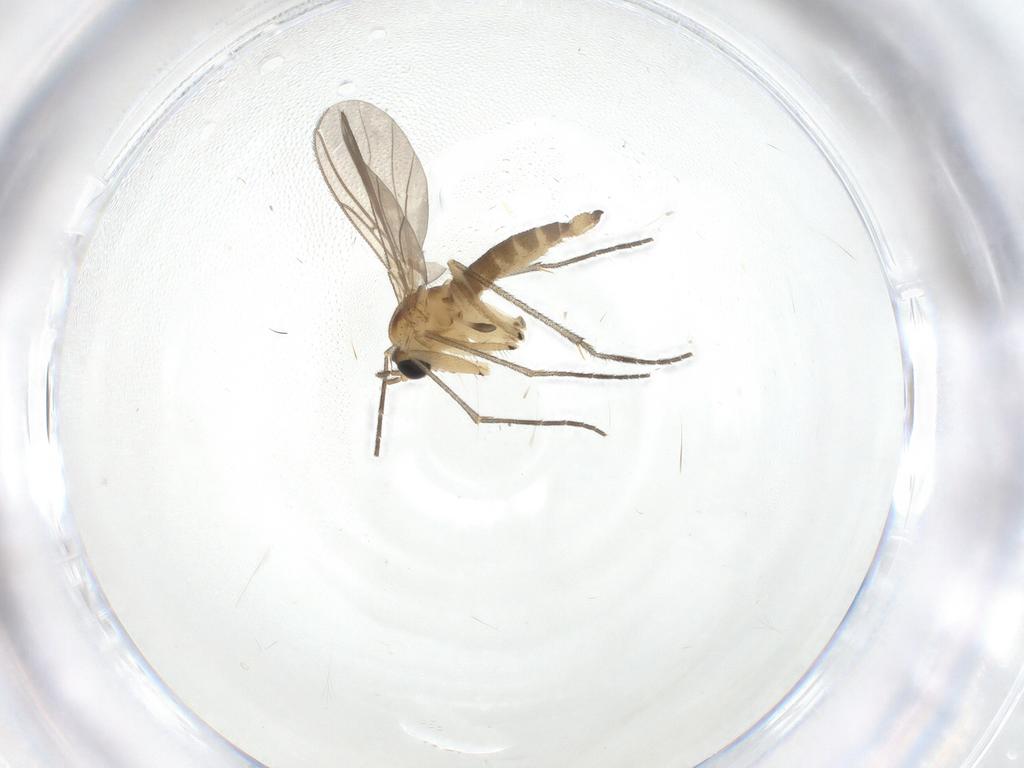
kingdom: Animalia
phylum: Arthropoda
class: Insecta
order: Diptera
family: Sciaridae
